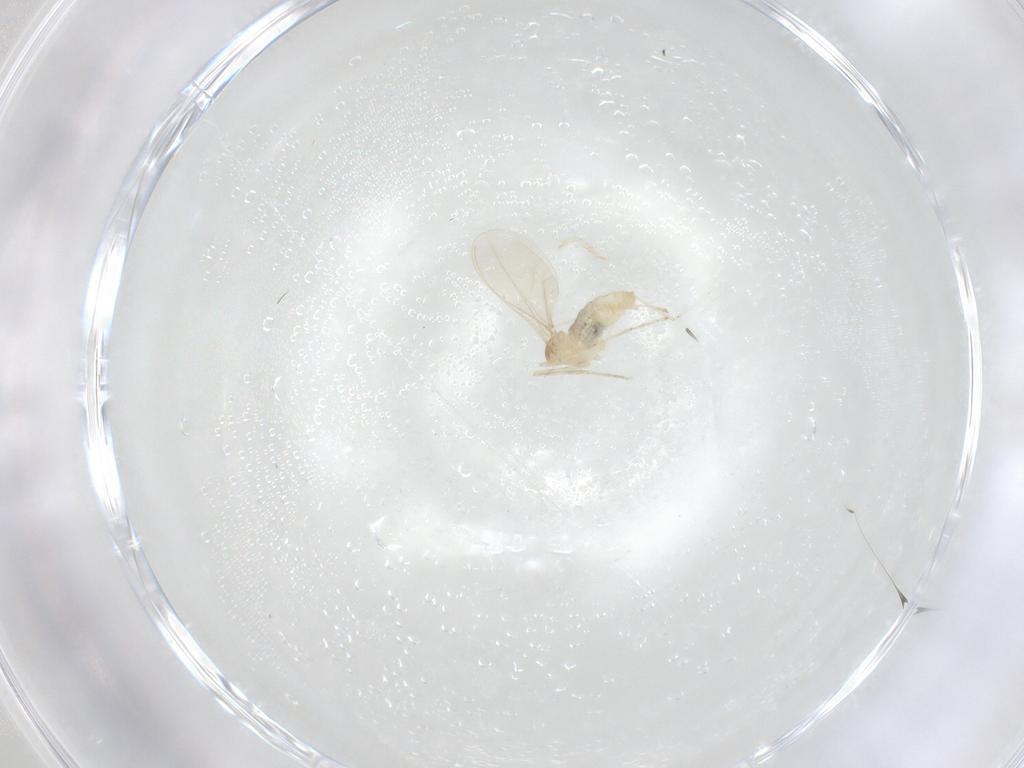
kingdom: Animalia
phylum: Arthropoda
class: Insecta
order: Diptera
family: Cecidomyiidae
